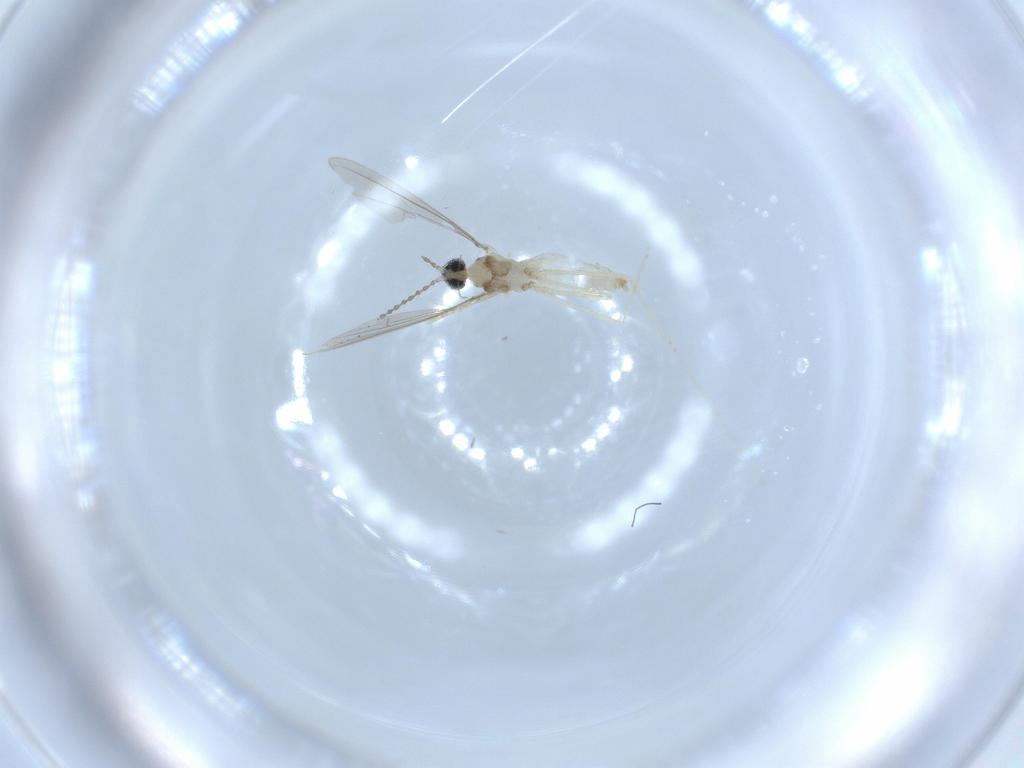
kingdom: Animalia
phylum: Arthropoda
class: Insecta
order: Diptera
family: Cecidomyiidae
